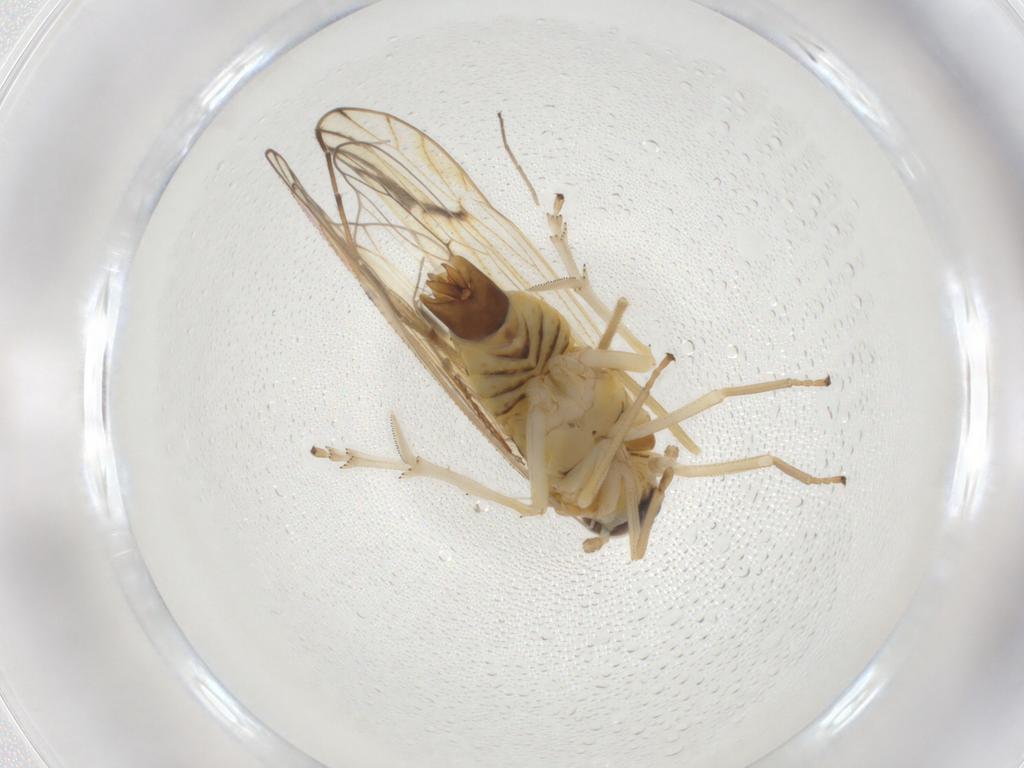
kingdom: Animalia
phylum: Arthropoda
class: Insecta
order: Hemiptera
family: Delphacidae
